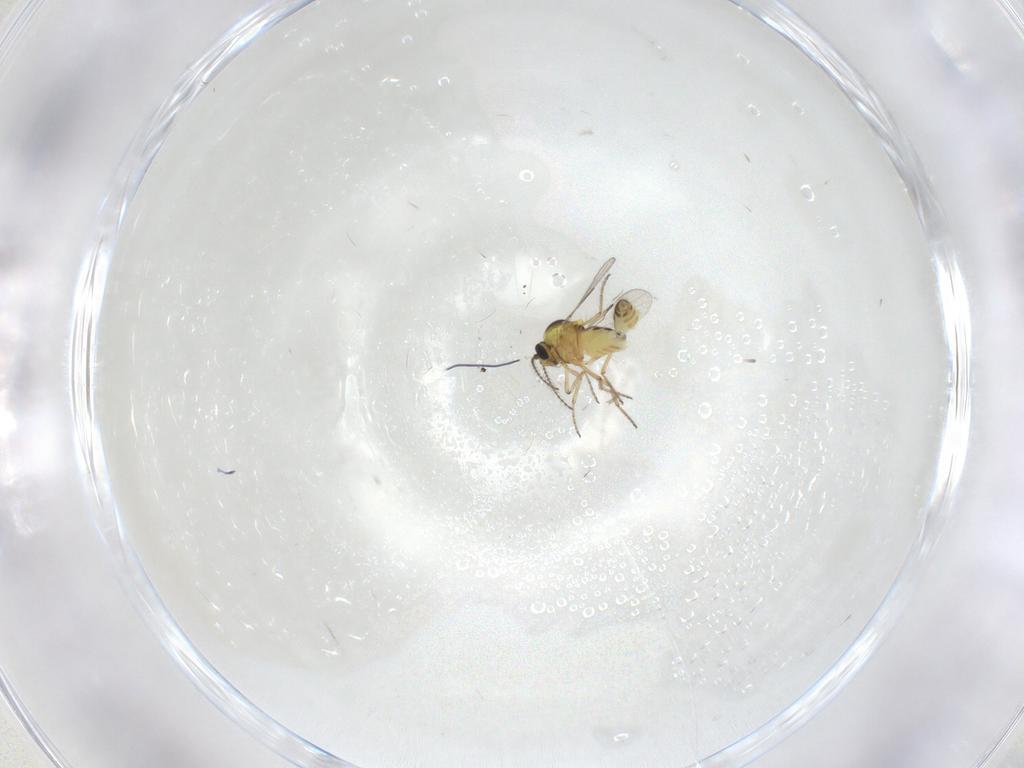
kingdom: Animalia
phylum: Arthropoda
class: Insecta
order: Diptera
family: Ceratopogonidae
